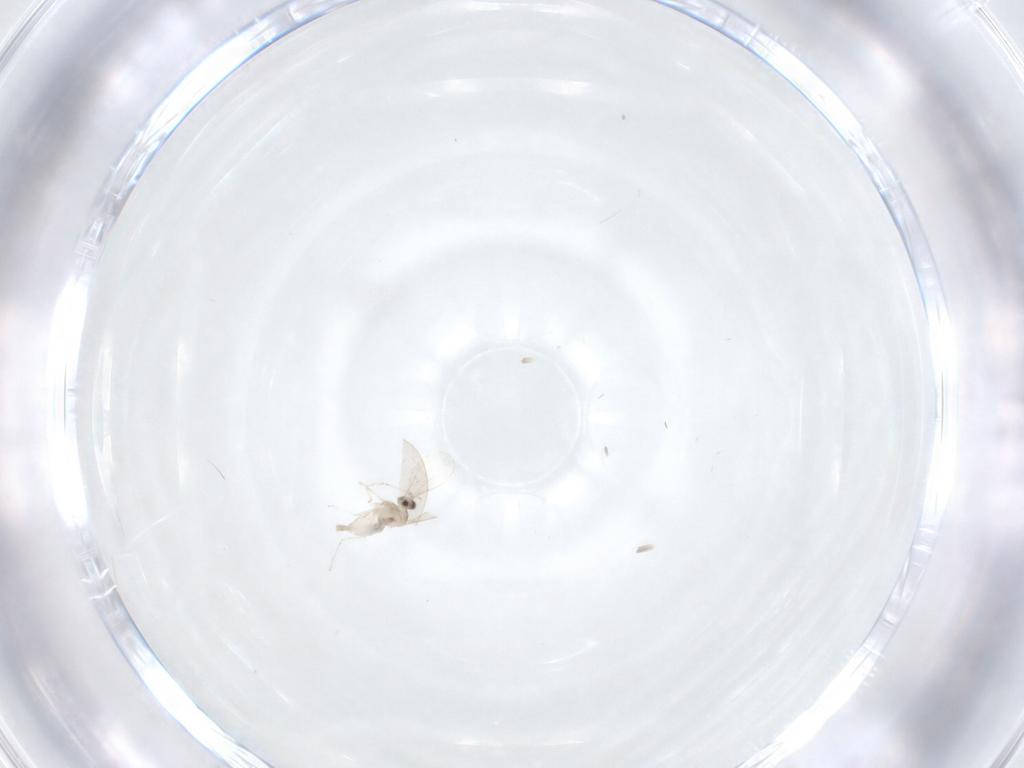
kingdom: Animalia
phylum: Arthropoda
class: Insecta
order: Diptera
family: Cecidomyiidae
